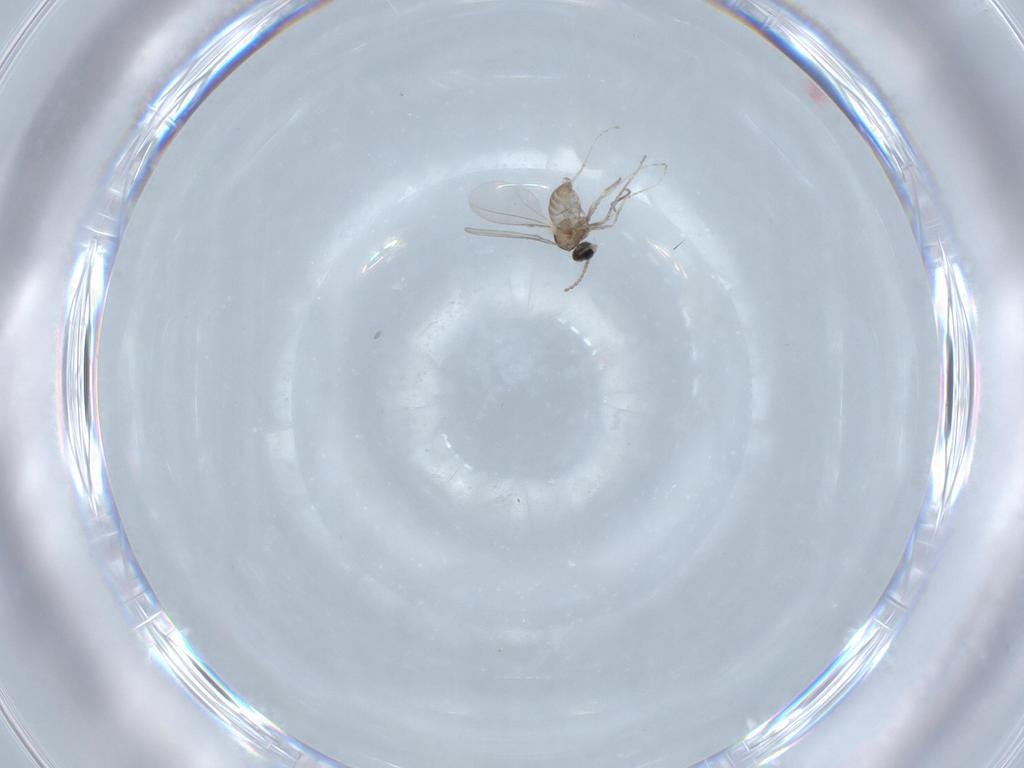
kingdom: Animalia
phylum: Arthropoda
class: Insecta
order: Diptera
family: Cecidomyiidae
